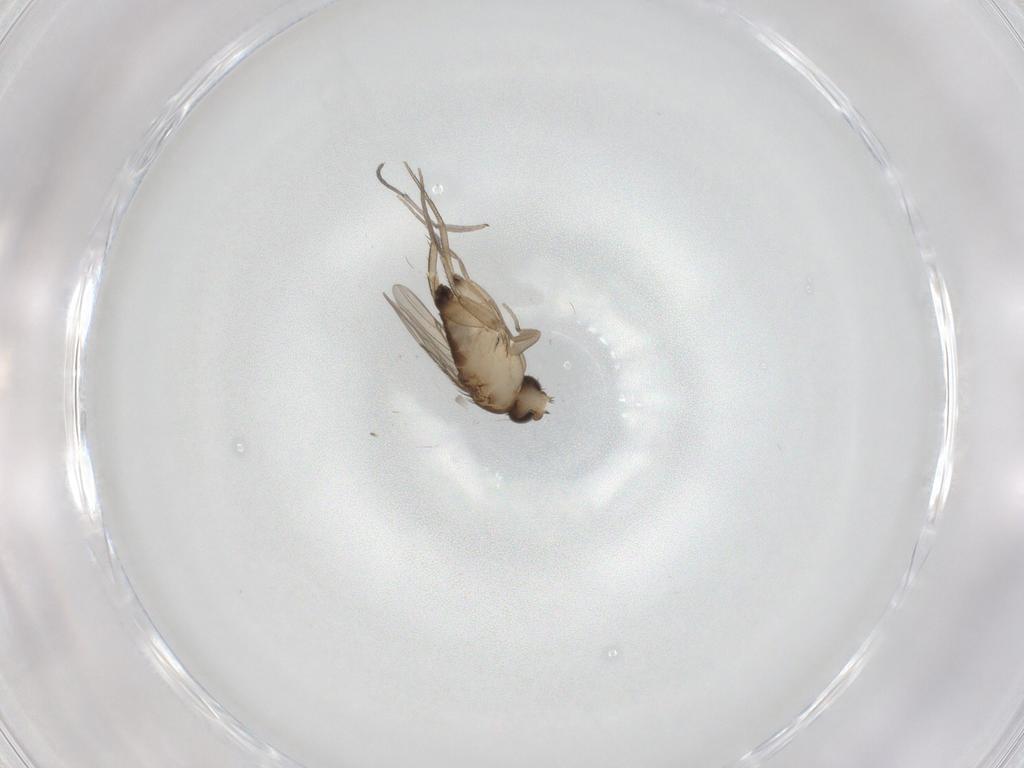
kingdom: Animalia
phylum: Arthropoda
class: Insecta
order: Diptera
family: Sciaridae
